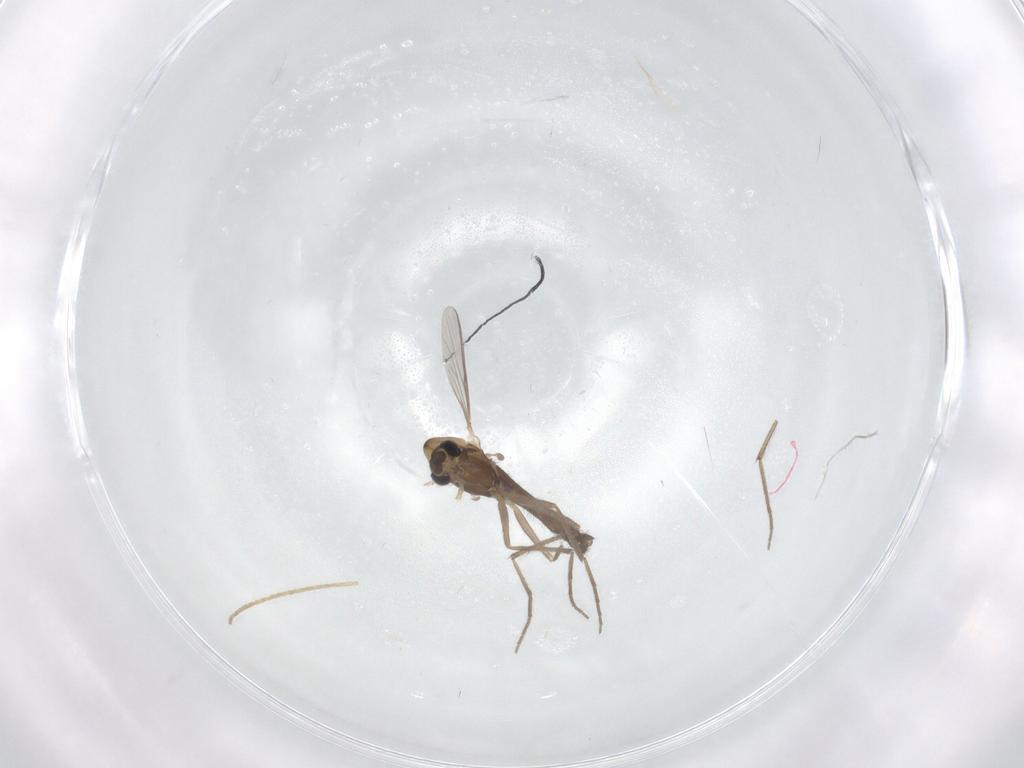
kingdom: Animalia
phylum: Arthropoda
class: Insecta
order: Diptera
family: Chironomidae
